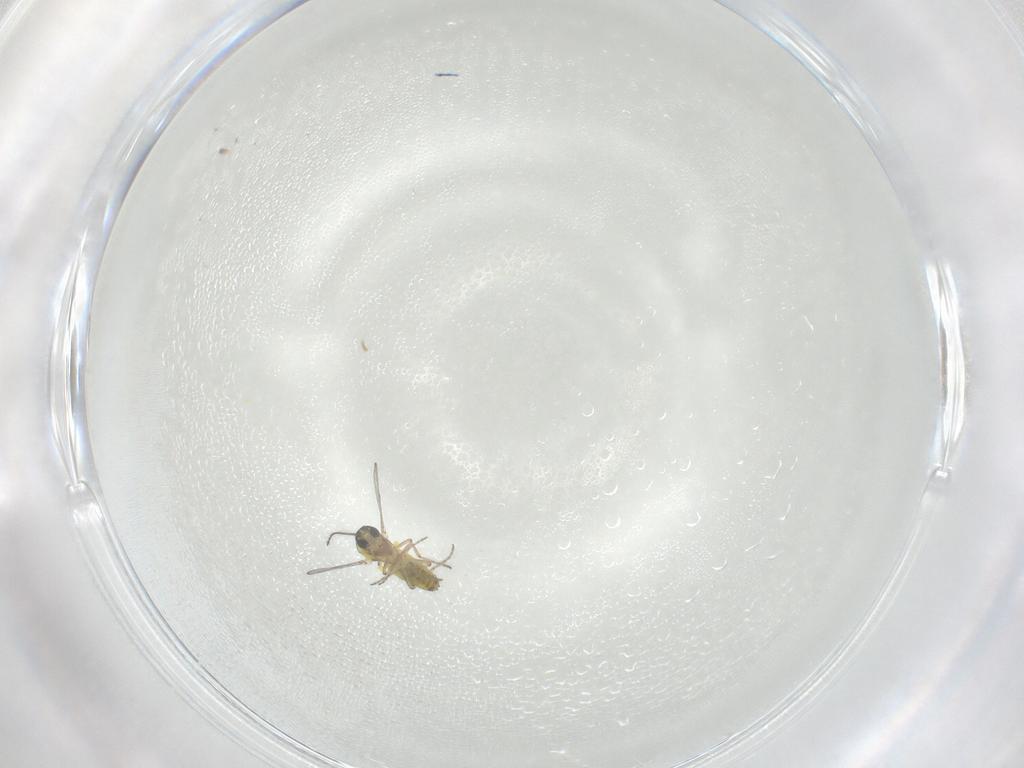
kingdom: Animalia
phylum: Arthropoda
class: Insecta
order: Diptera
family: Ceratopogonidae
